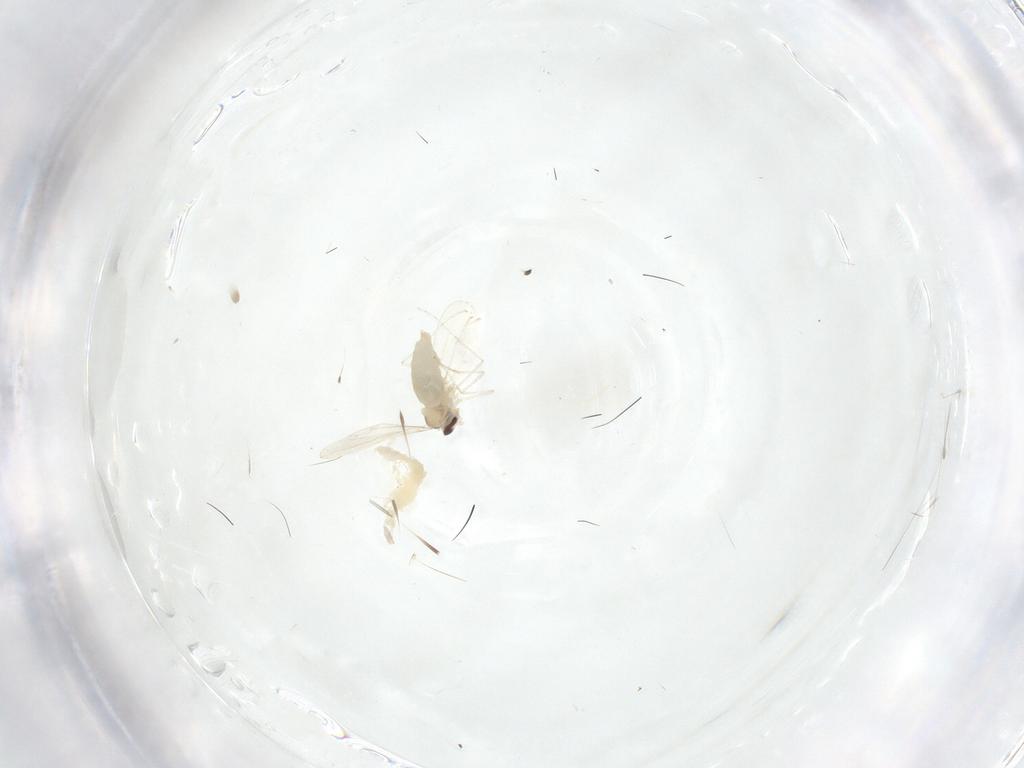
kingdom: Animalia
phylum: Arthropoda
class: Insecta
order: Diptera
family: Cecidomyiidae
